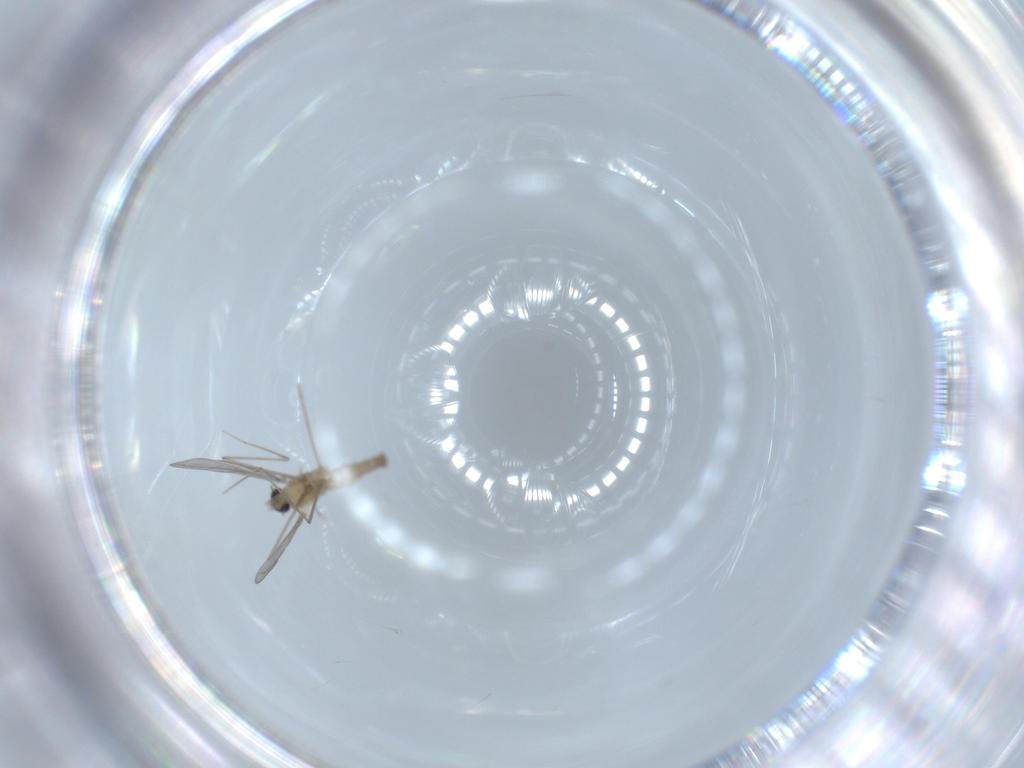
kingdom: Animalia
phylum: Arthropoda
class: Insecta
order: Diptera
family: Cecidomyiidae
